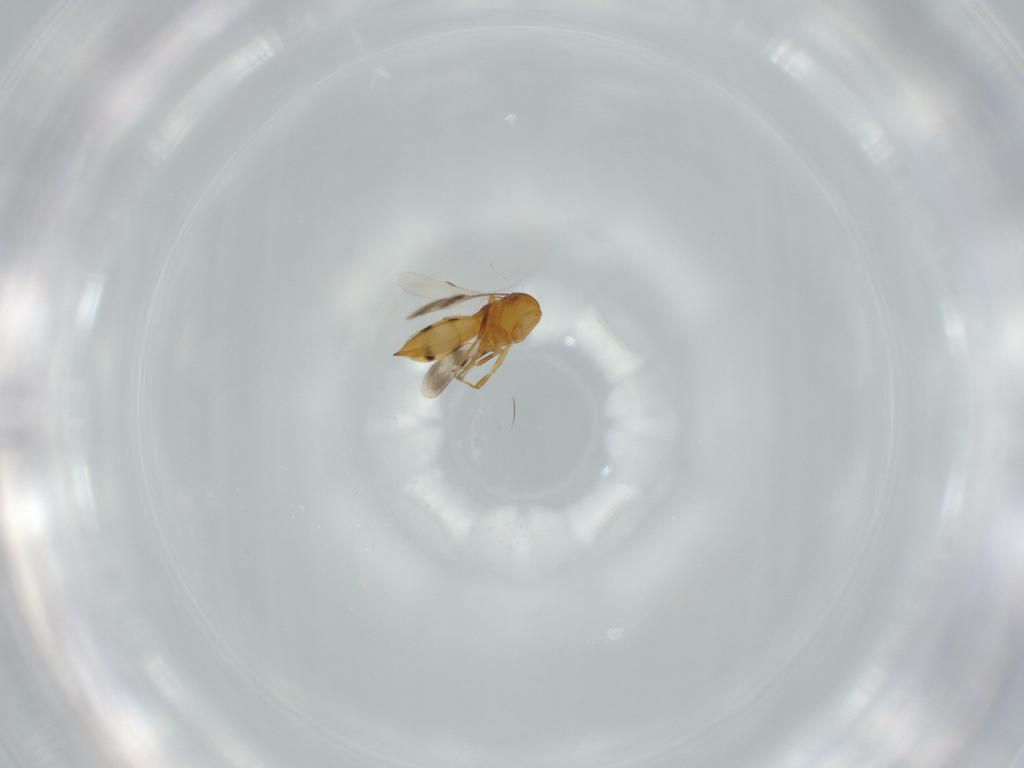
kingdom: Animalia
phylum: Arthropoda
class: Insecta
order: Hymenoptera
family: Scelionidae
